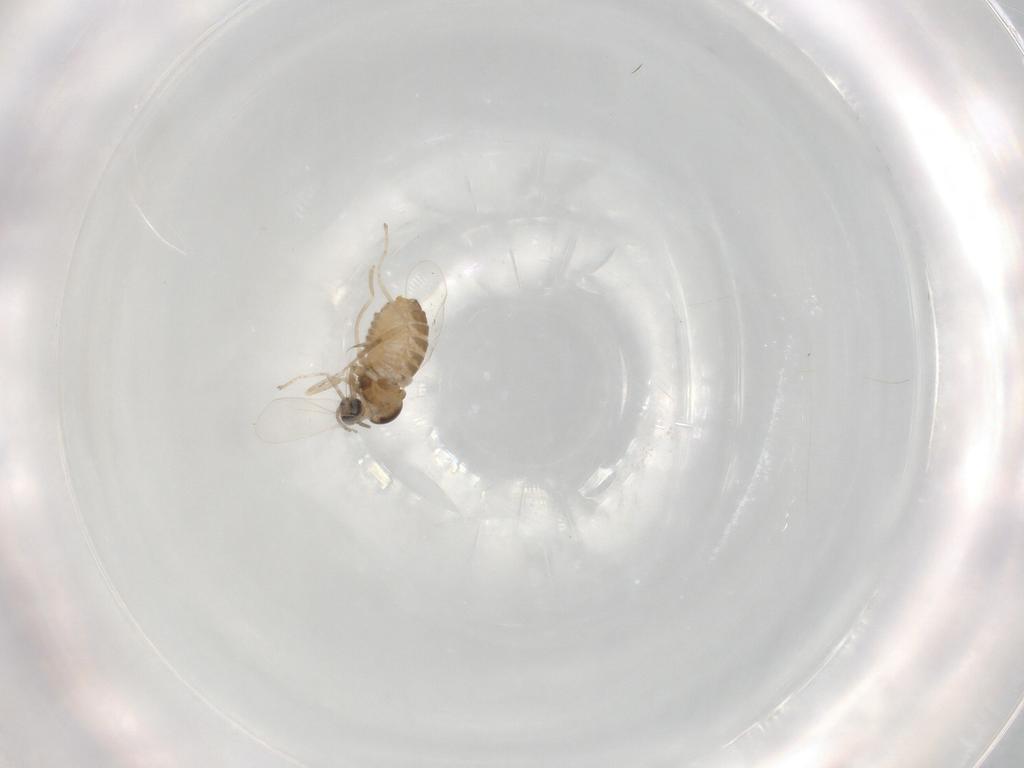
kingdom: Animalia
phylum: Arthropoda
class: Insecta
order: Diptera
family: Cecidomyiidae
